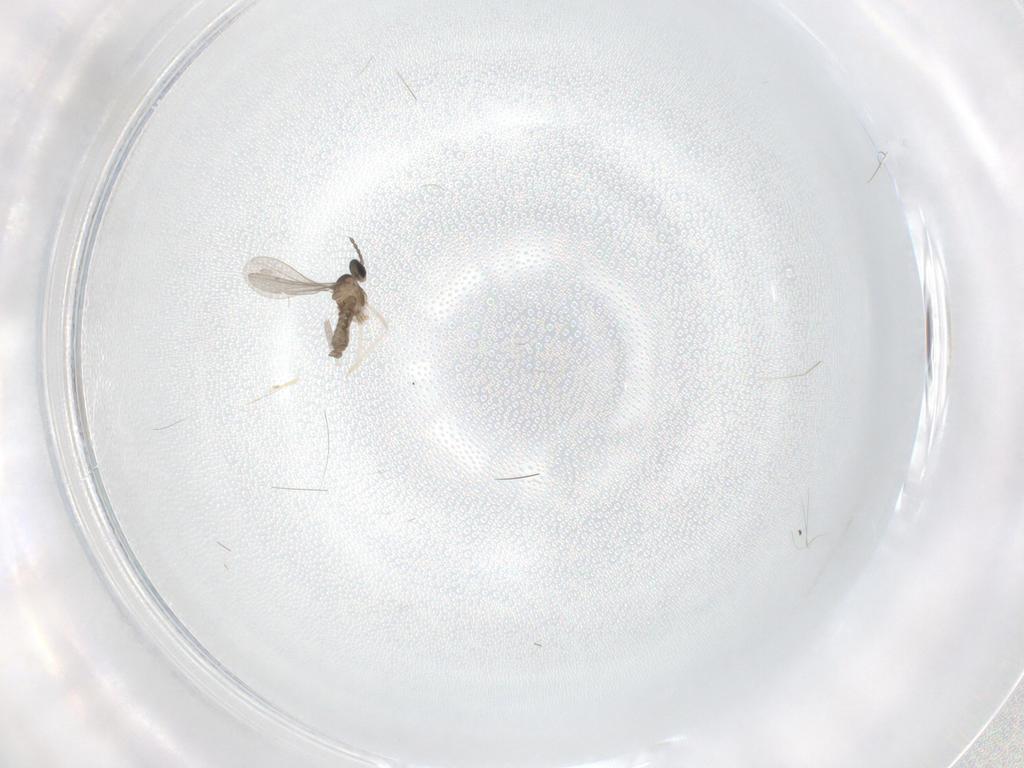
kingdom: Animalia
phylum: Arthropoda
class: Insecta
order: Diptera
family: Cecidomyiidae
